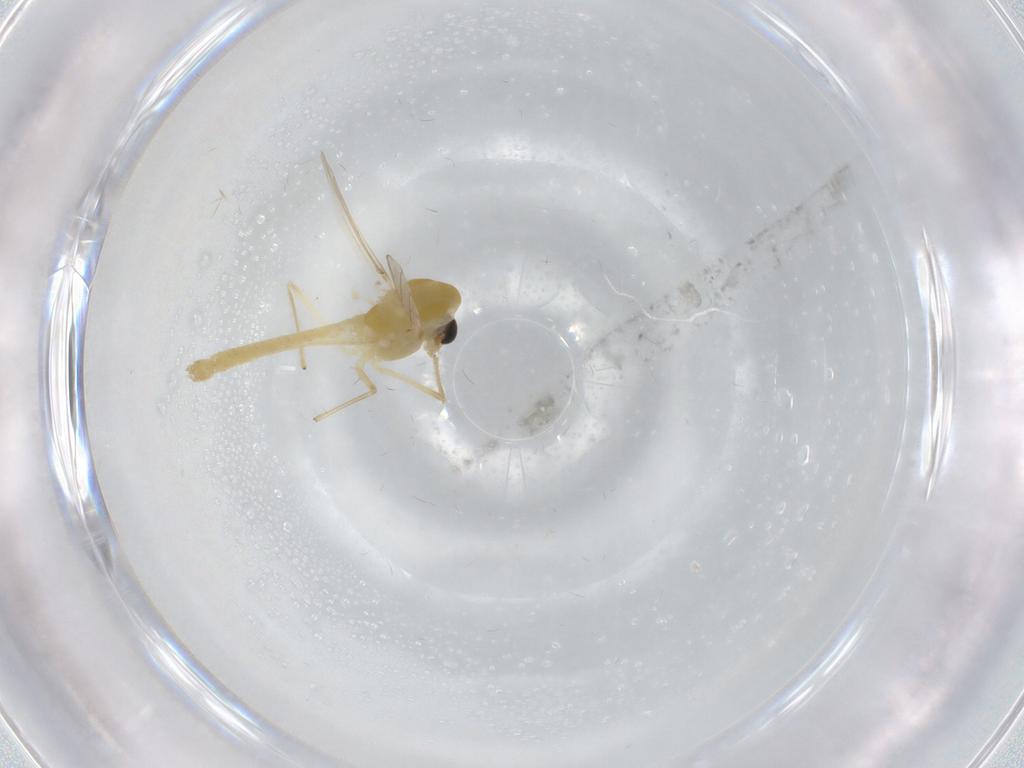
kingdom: Animalia
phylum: Arthropoda
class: Insecta
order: Diptera
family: Chironomidae
